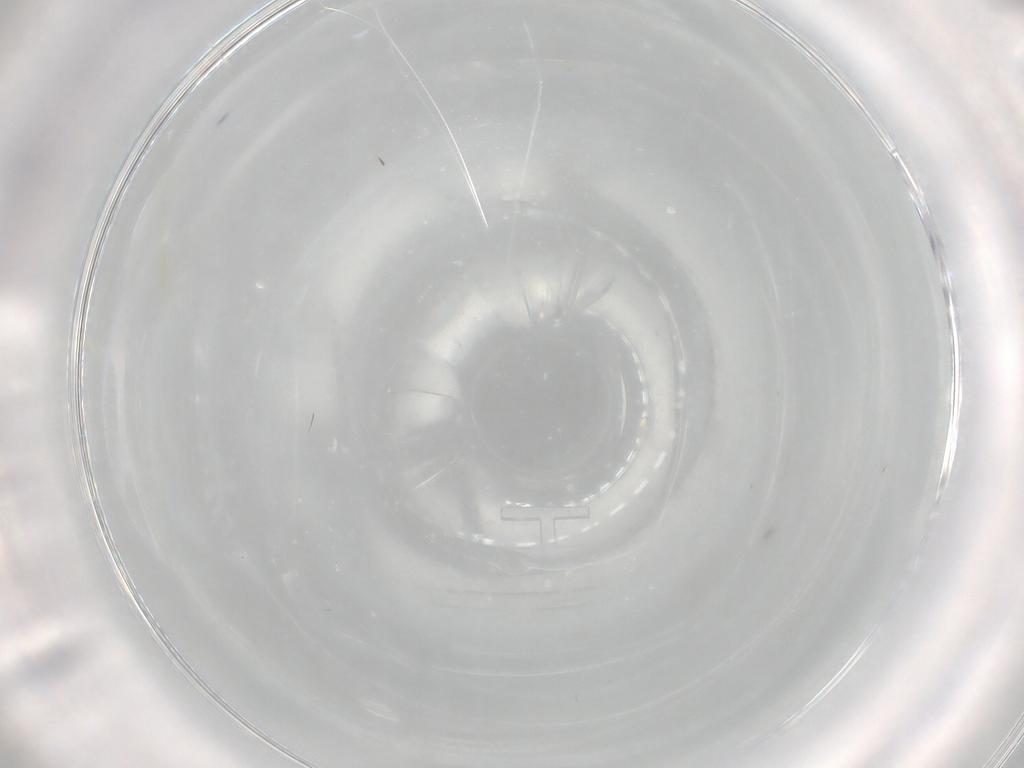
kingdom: Animalia
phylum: Arthropoda
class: Insecta
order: Hemiptera
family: Aleyrodidae
